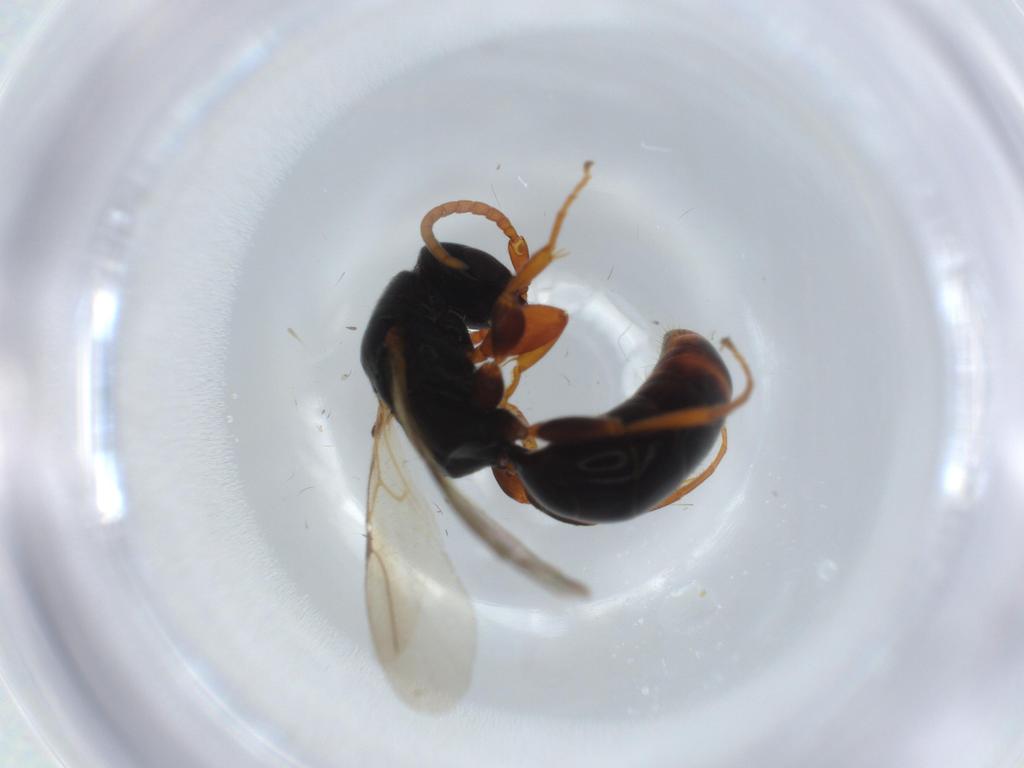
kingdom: Animalia
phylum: Arthropoda
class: Insecta
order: Hymenoptera
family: Bethylidae
